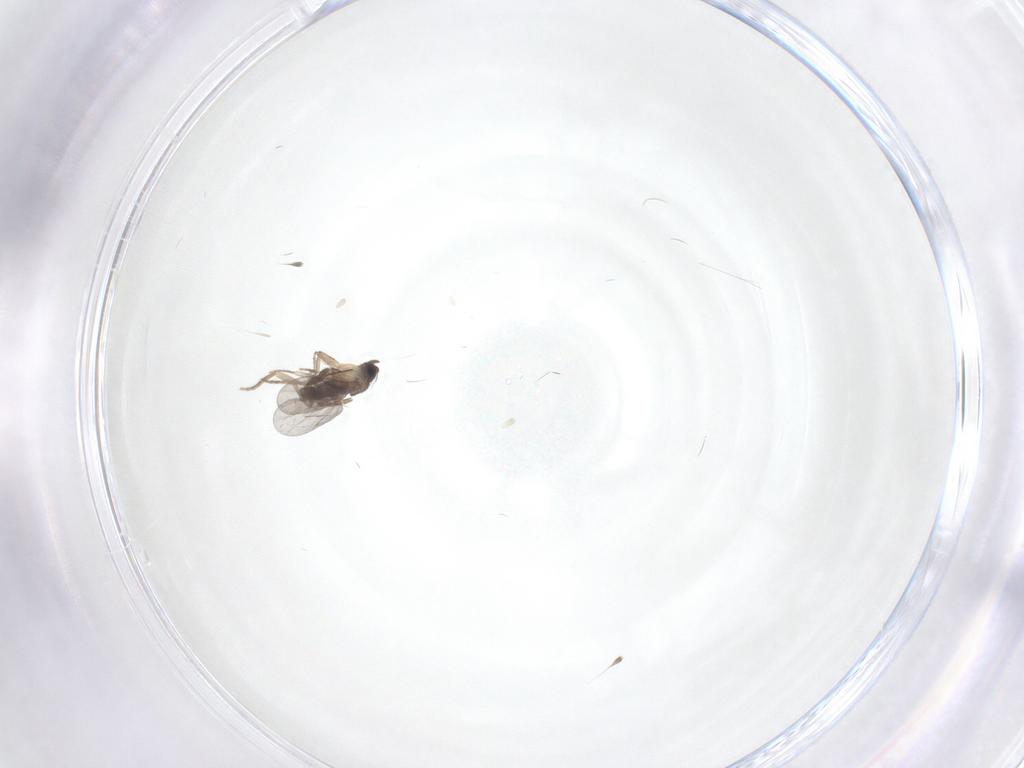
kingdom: Animalia
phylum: Arthropoda
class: Insecta
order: Diptera
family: Phoridae
